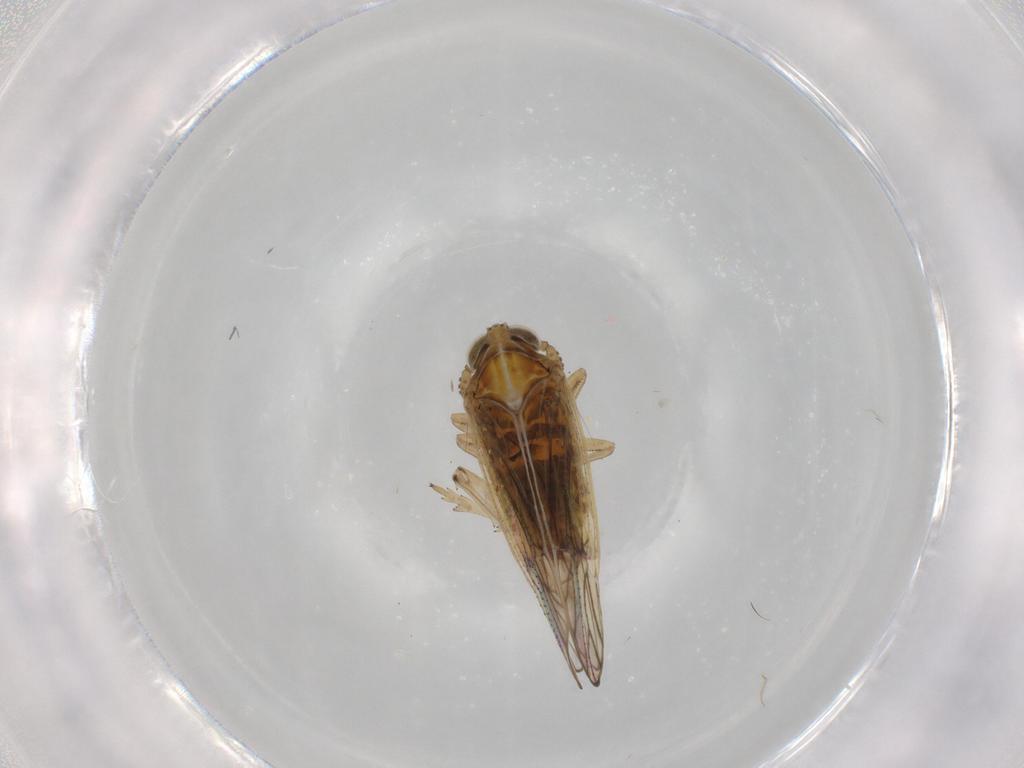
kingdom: Animalia
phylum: Arthropoda
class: Insecta
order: Hemiptera
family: Delphacidae
